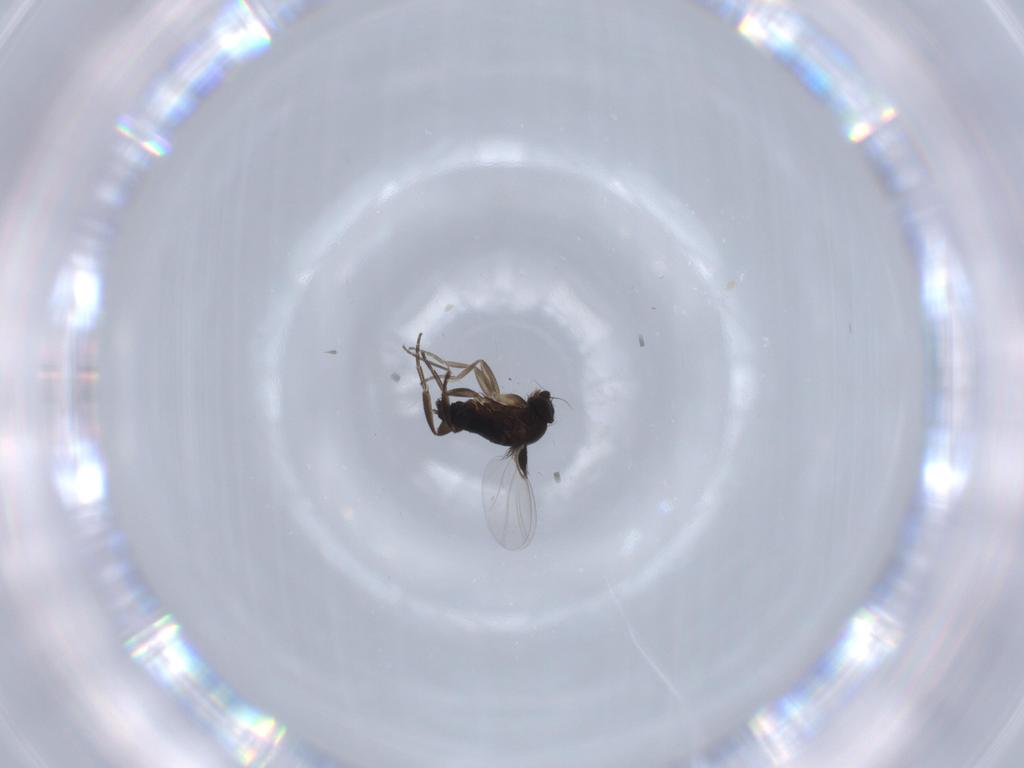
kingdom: Animalia
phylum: Arthropoda
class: Insecta
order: Diptera
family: Phoridae
